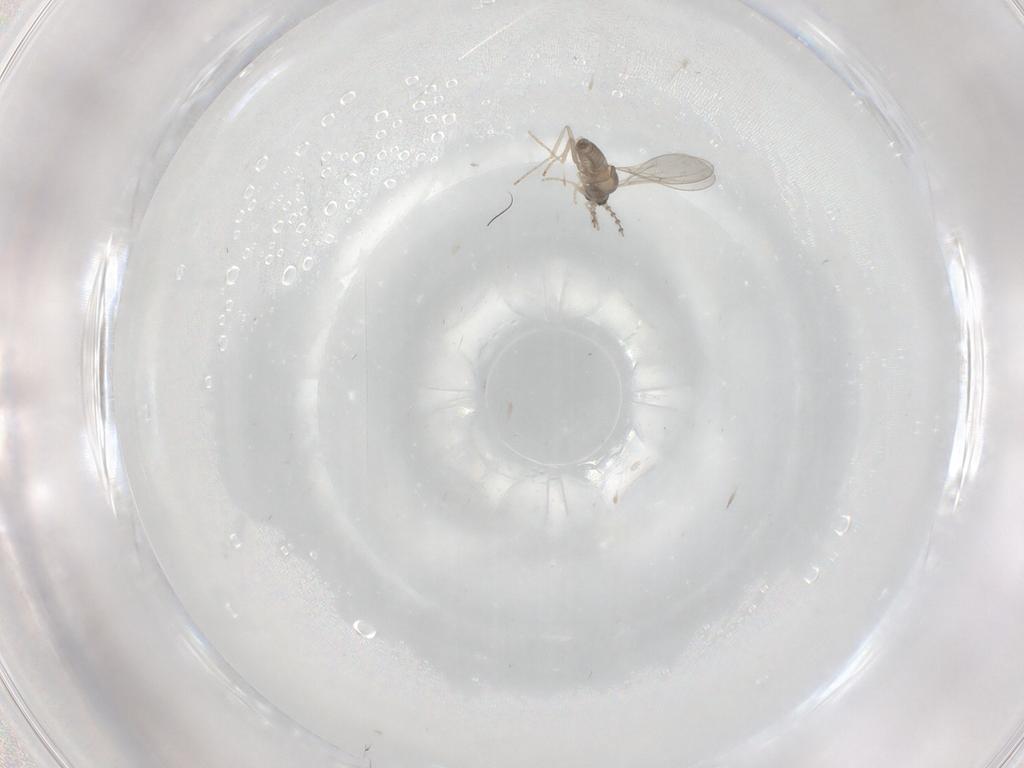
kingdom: Animalia
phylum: Arthropoda
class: Insecta
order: Diptera
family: Cecidomyiidae
